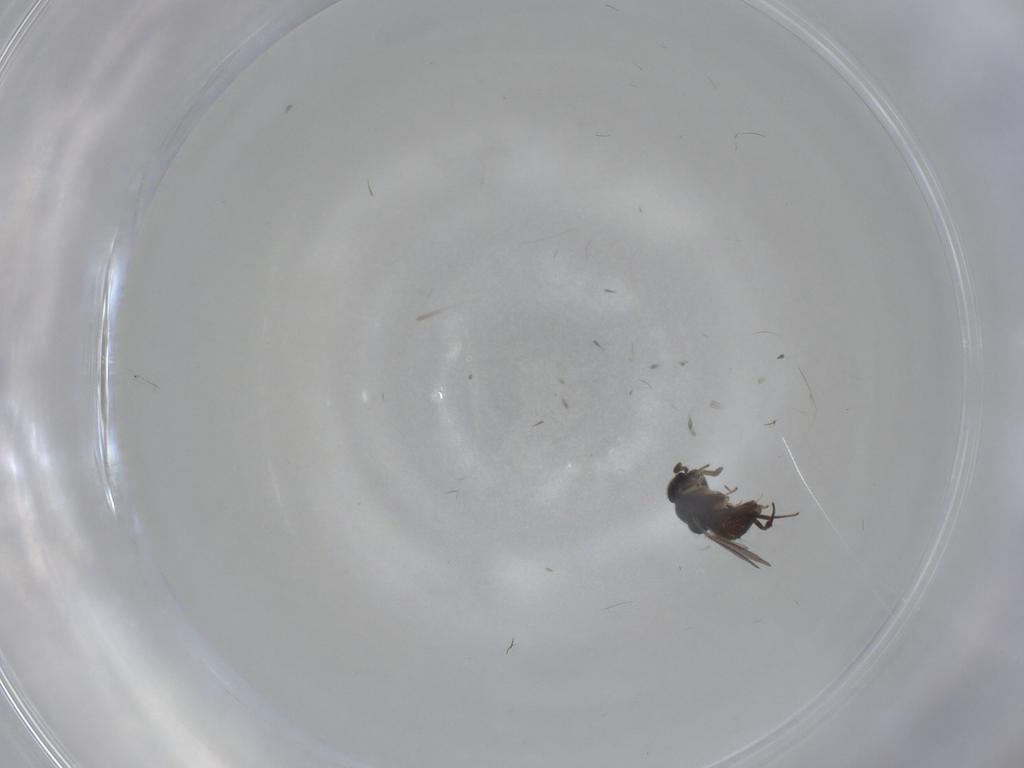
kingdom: Animalia
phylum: Arthropoda
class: Insecta
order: Hymenoptera
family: Encyrtidae
